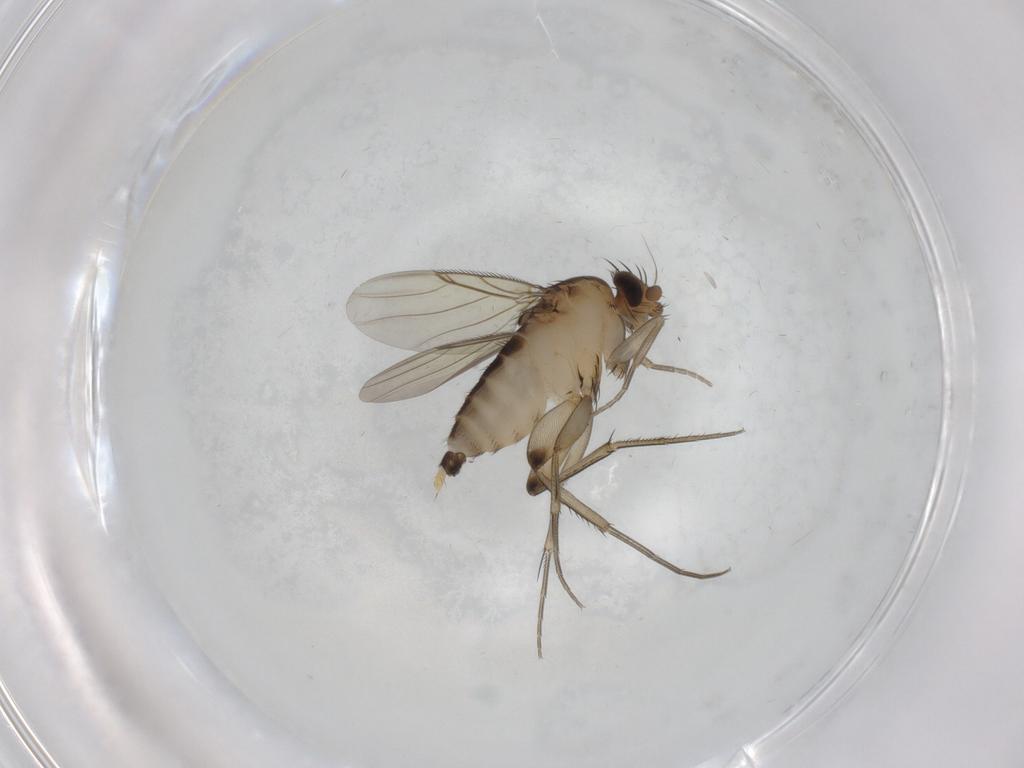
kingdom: Animalia
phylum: Arthropoda
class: Insecta
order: Diptera
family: Phoridae
